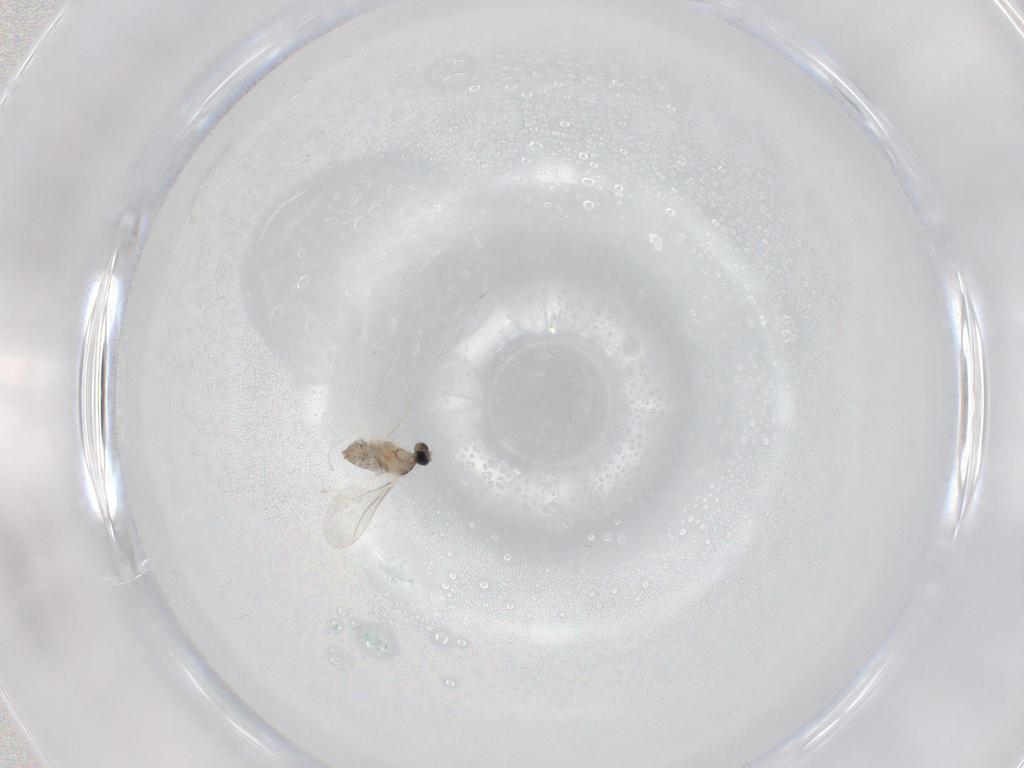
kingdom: Animalia
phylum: Arthropoda
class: Insecta
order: Diptera
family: Cecidomyiidae
